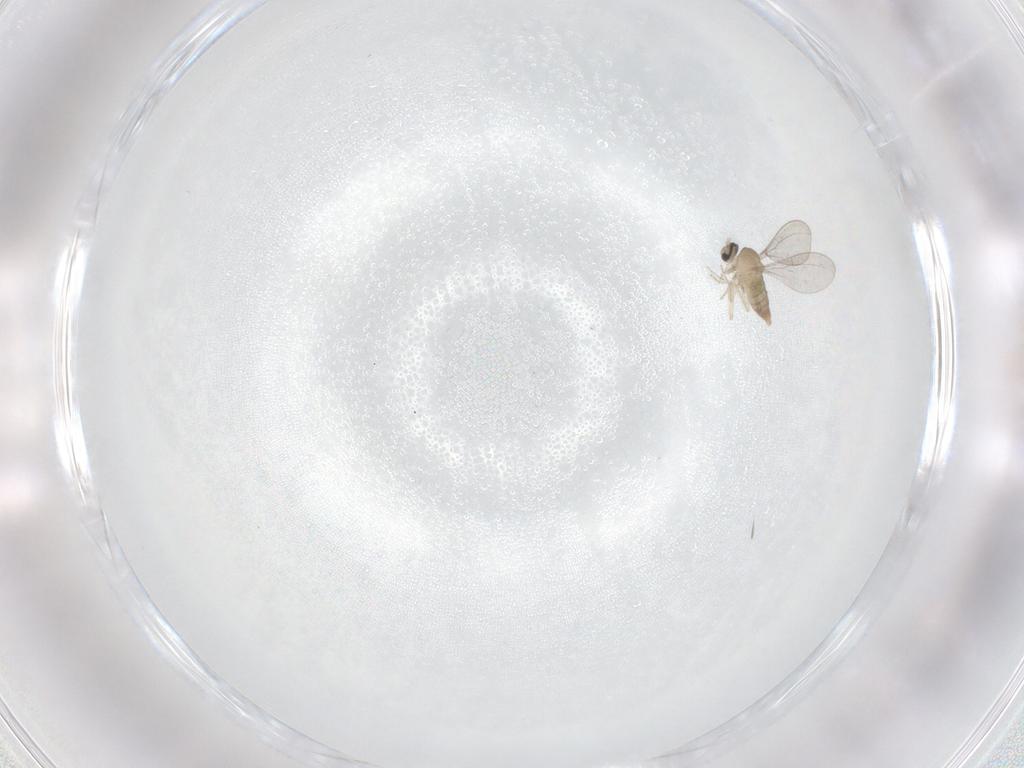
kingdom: Animalia
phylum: Arthropoda
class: Insecta
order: Diptera
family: Cecidomyiidae
